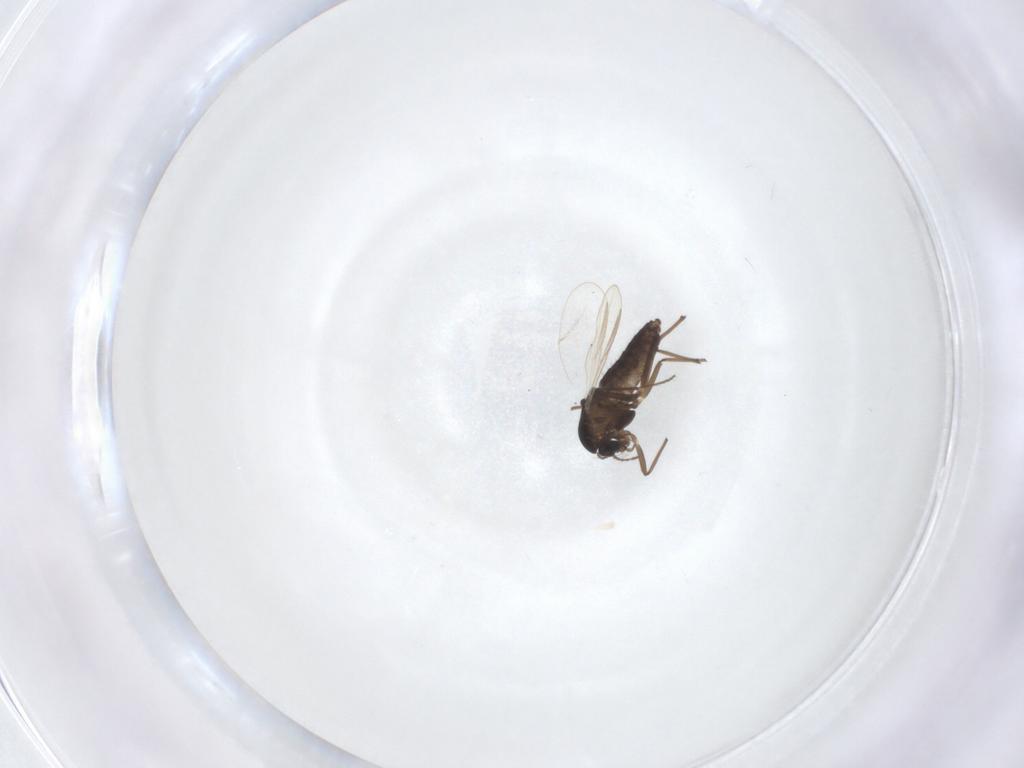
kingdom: Animalia
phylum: Arthropoda
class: Insecta
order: Diptera
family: Chironomidae
